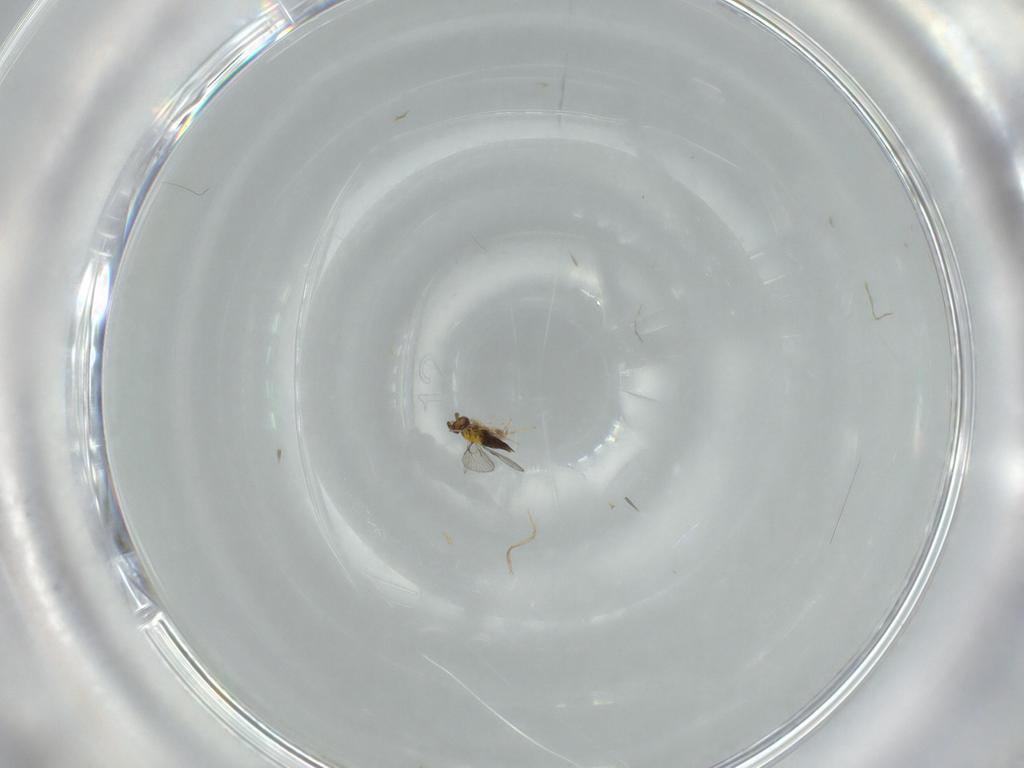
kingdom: Animalia
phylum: Arthropoda
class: Insecta
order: Hymenoptera
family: Trichogrammatidae
